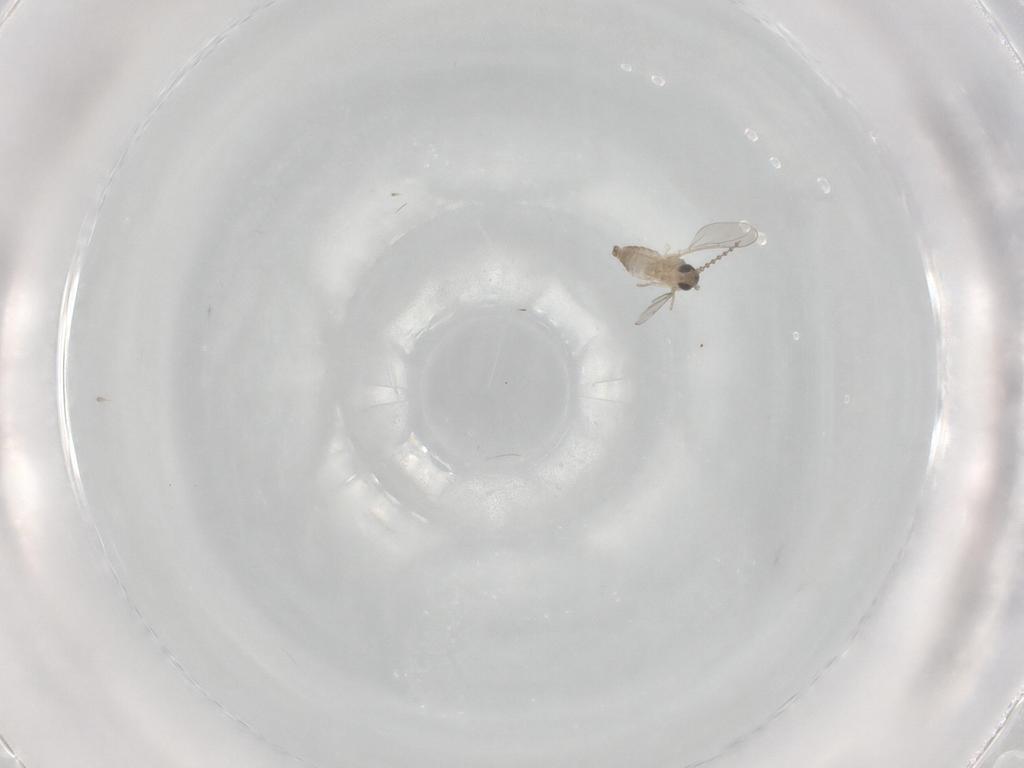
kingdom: Animalia
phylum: Arthropoda
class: Insecta
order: Diptera
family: Cecidomyiidae
